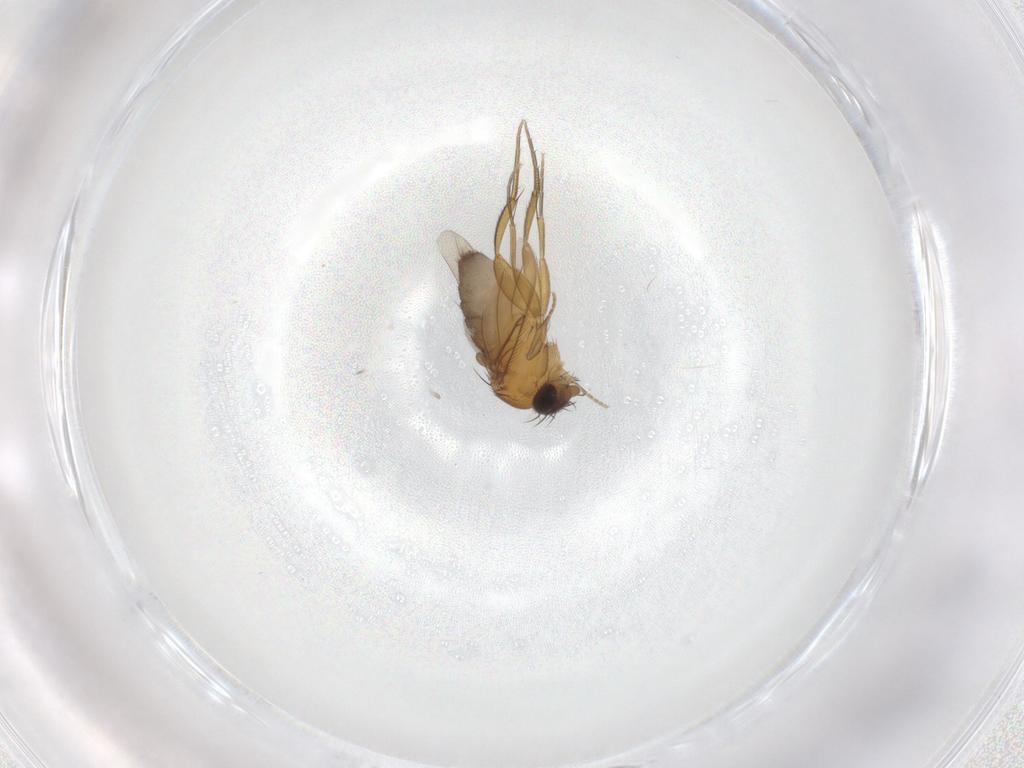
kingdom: Animalia
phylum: Arthropoda
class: Insecta
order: Diptera
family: Phoridae
